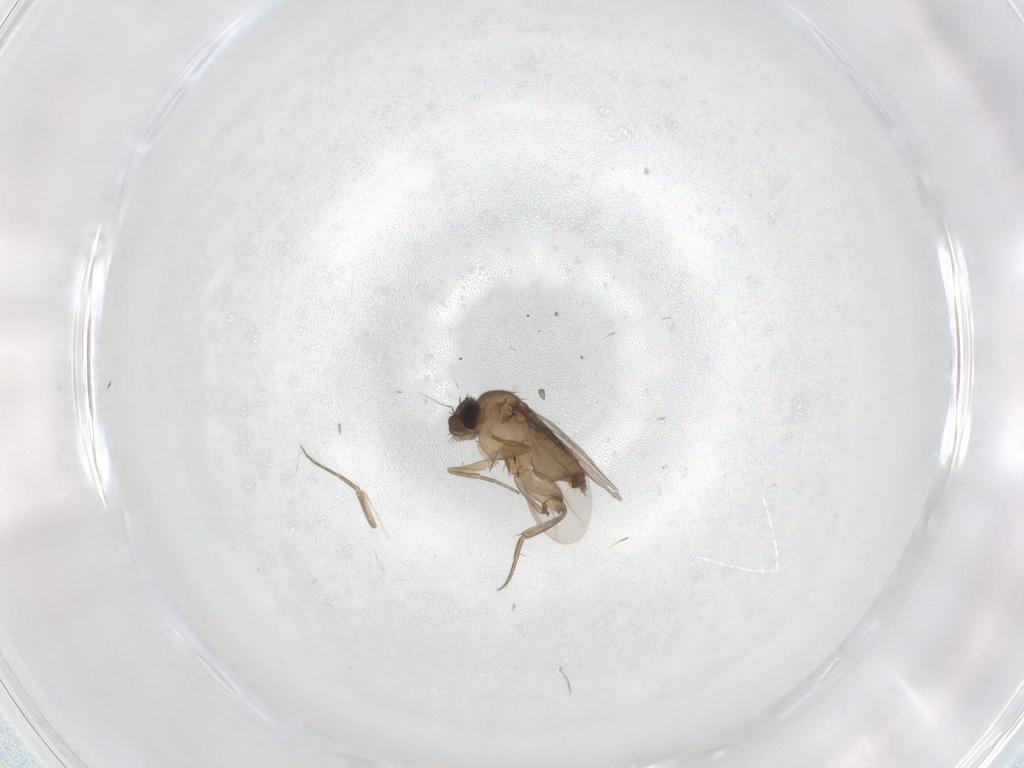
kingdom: Animalia
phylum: Arthropoda
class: Insecta
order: Diptera
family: Phoridae
